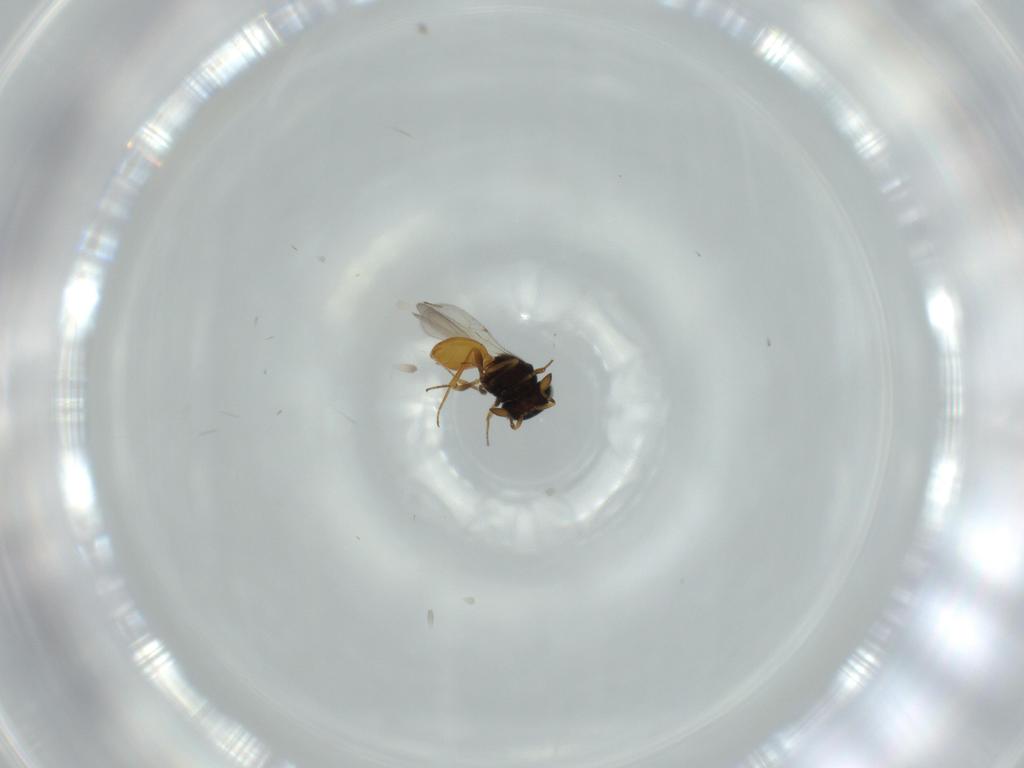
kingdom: Animalia
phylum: Arthropoda
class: Insecta
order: Hymenoptera
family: Scelionidae
